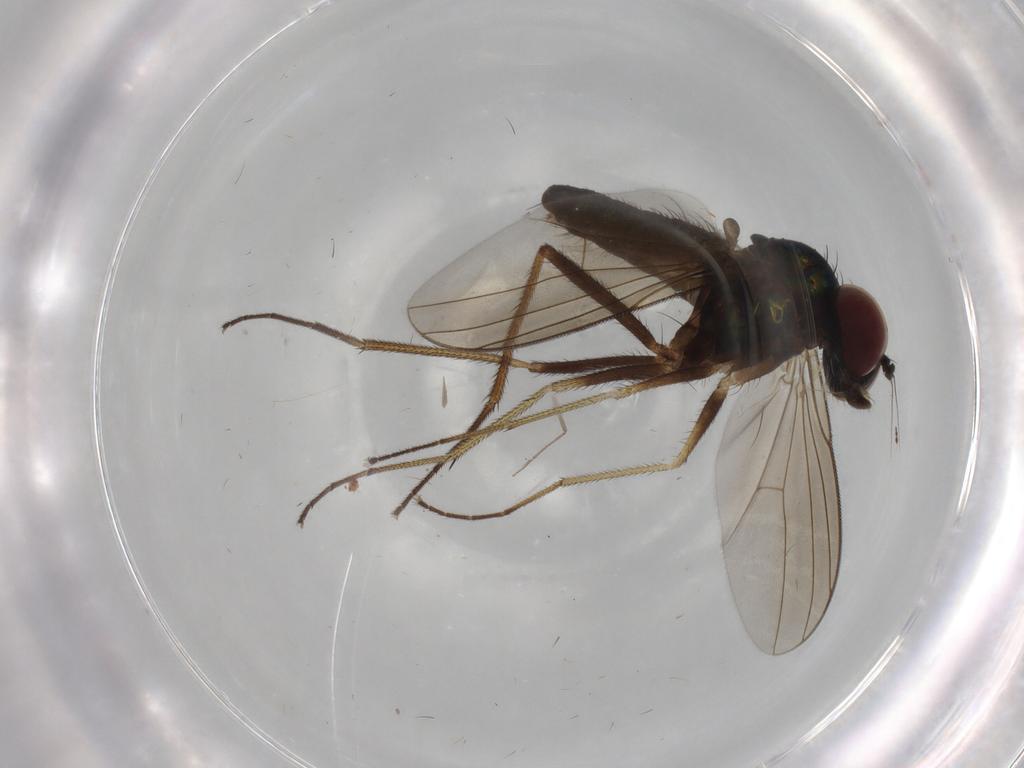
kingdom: Animalia
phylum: Arthropoda
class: Insecta
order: Diptera
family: Dolichopodidae
